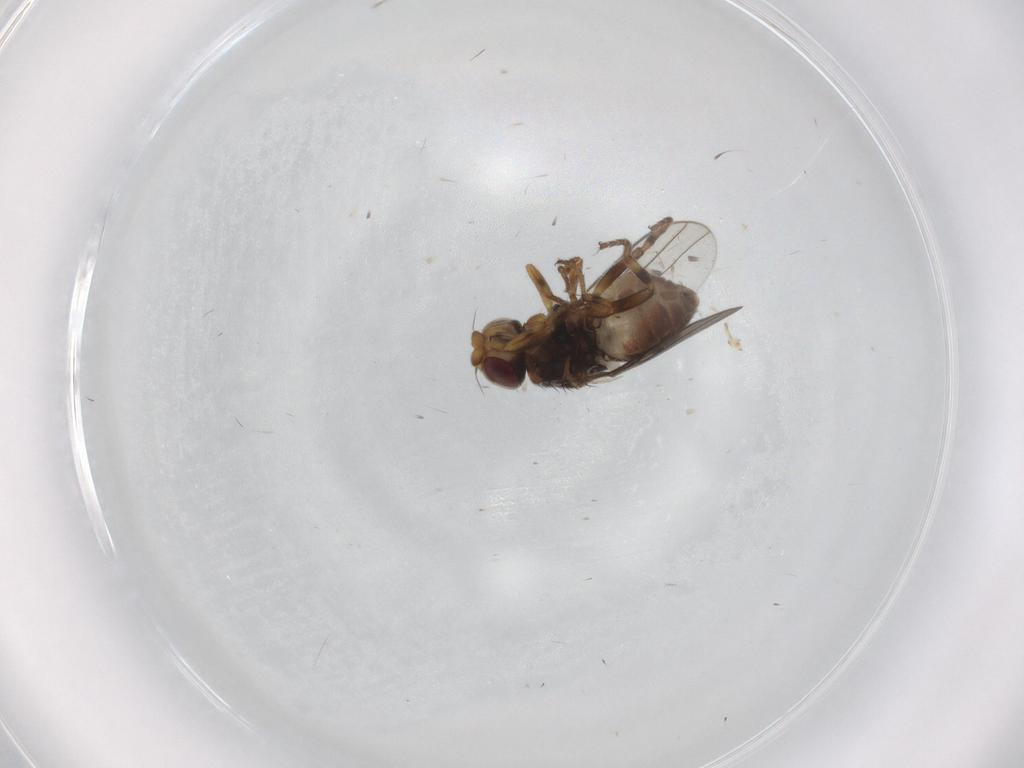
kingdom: Animalia
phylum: Arthropoda
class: Insecta
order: Diptera
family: Chloropidae
